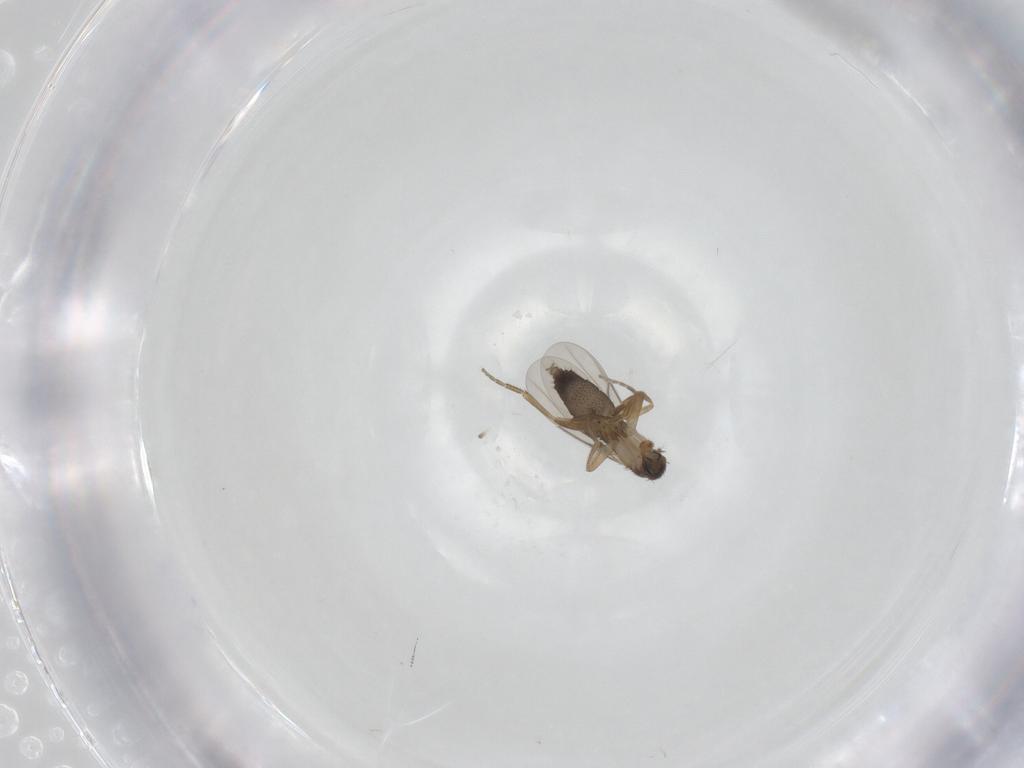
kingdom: Animalia
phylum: Arthropoda
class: Insecta
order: Diptera
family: Phoridae
